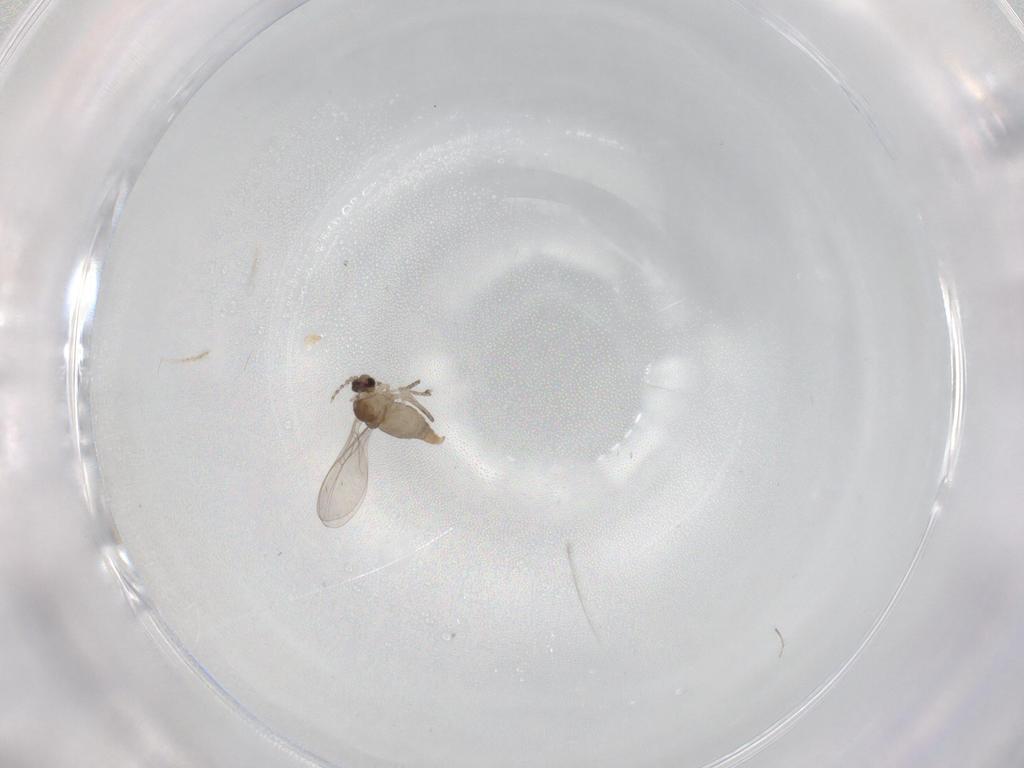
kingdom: Animalia
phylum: Arthropoda
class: Insecta
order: Diptera
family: Cecidomyiidae
